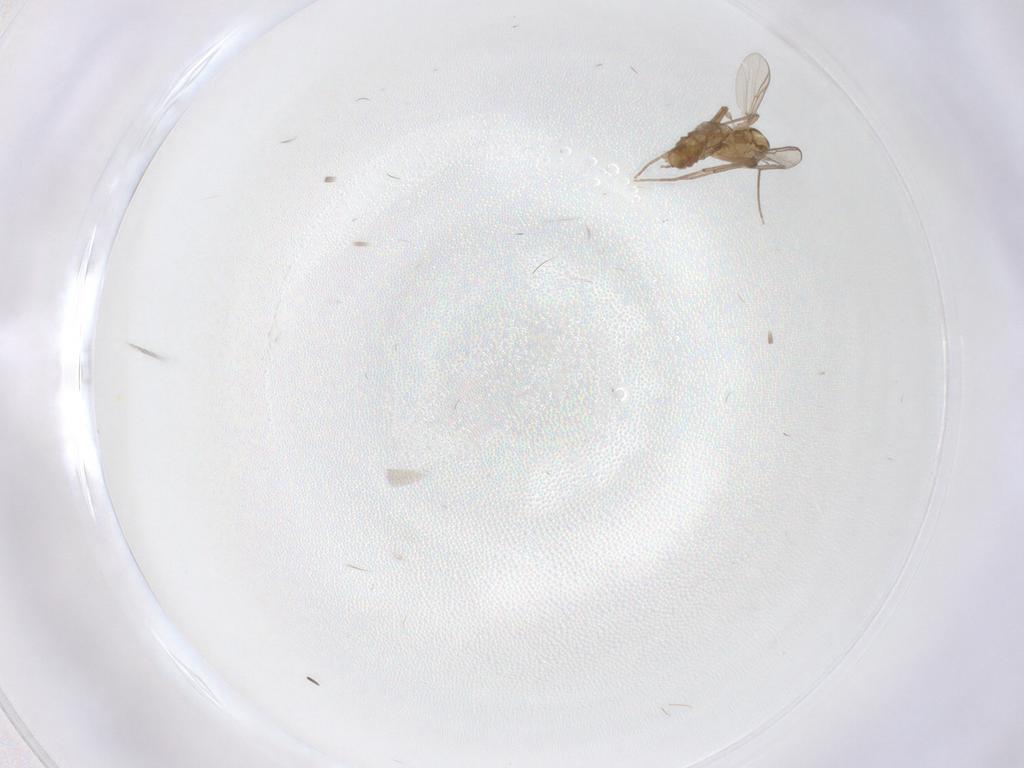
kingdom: Animalia
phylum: Arthropoda
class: Insecta
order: Diptera
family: Chironomidae
